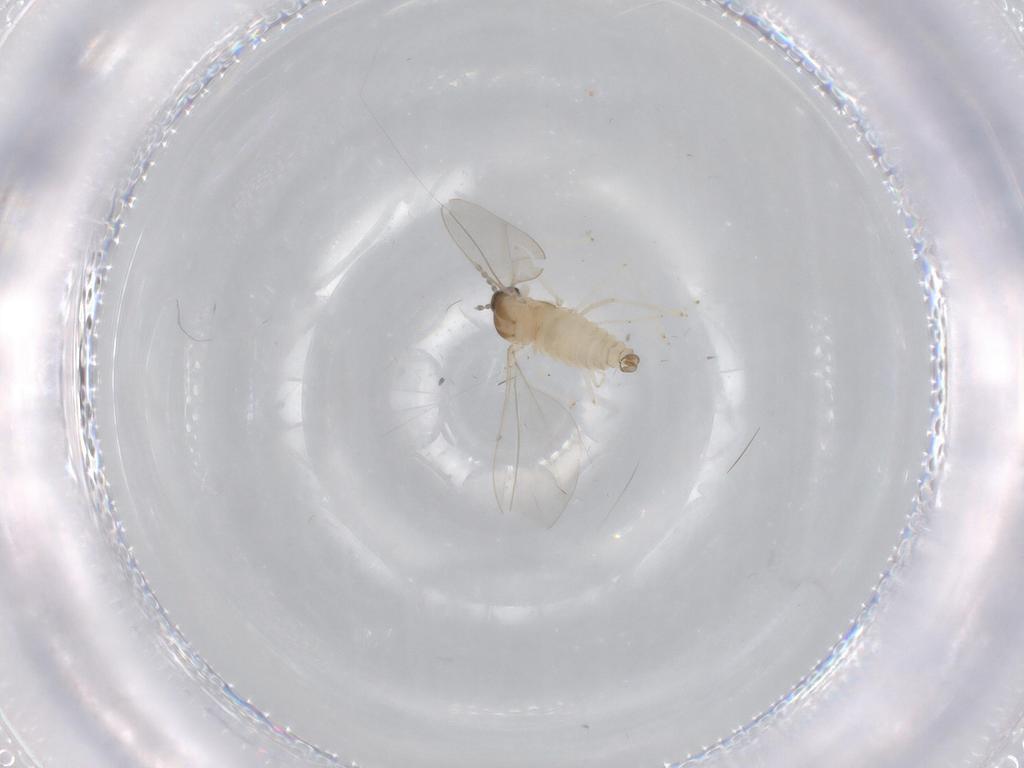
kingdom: Animalia
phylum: Arthropoda
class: Insecta
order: Diptera
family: Cecidomyiidae
